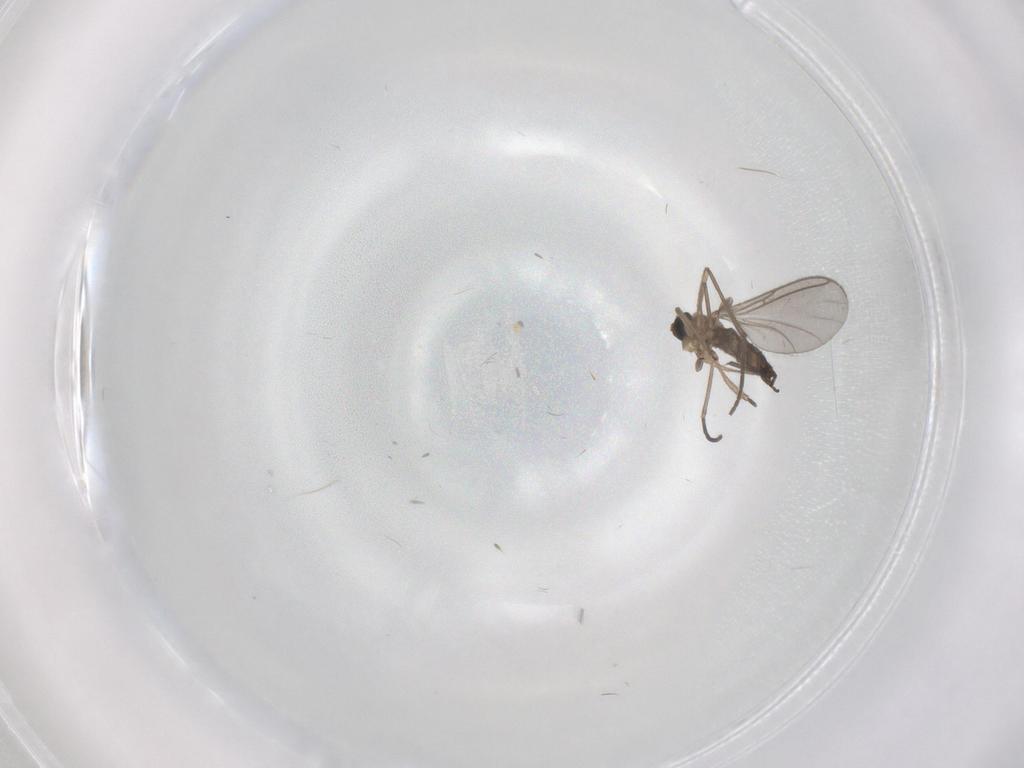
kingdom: Animalia
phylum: Arthropoda
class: Insecta
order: Diptera
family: Sciaridae
